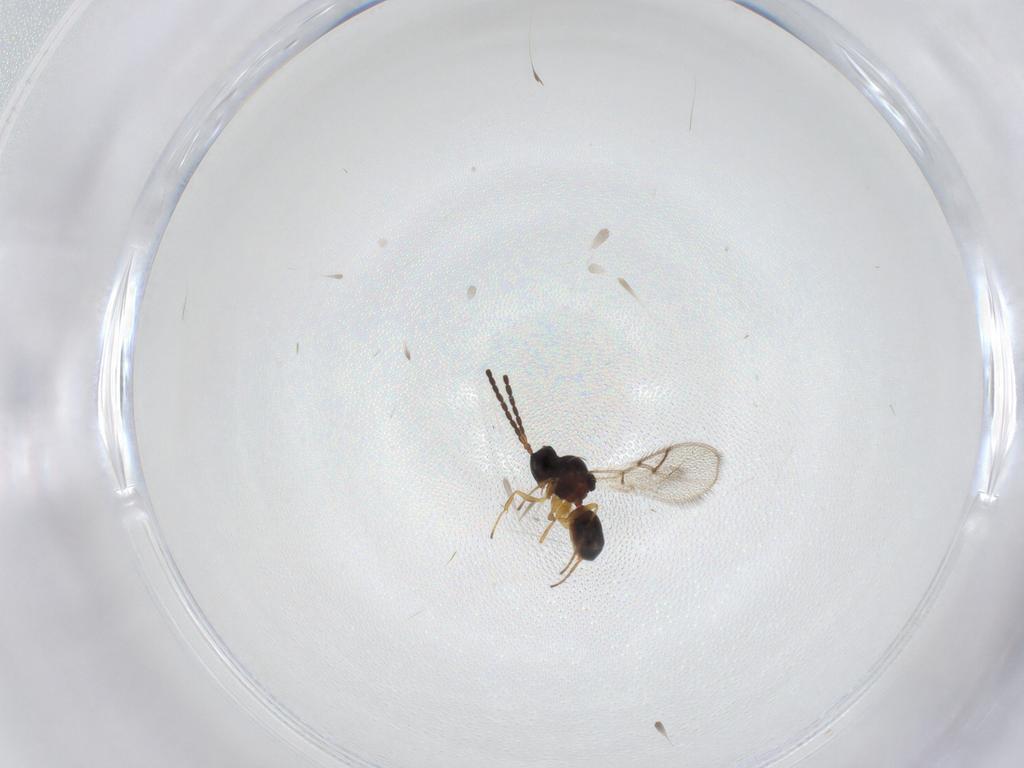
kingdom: Animalia
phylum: Arthropoda
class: Insecta
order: Hymenoptera
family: Figitidae
